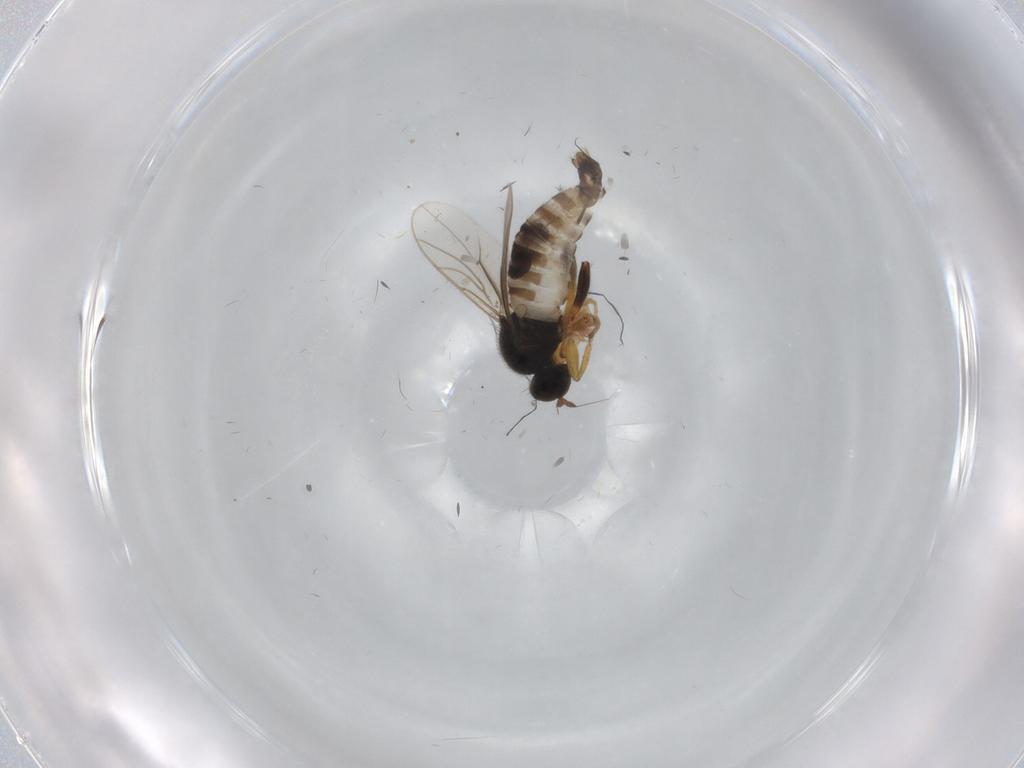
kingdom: Animalia
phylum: Arthropoda
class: Insecta
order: Diptera
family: Hybotidae
